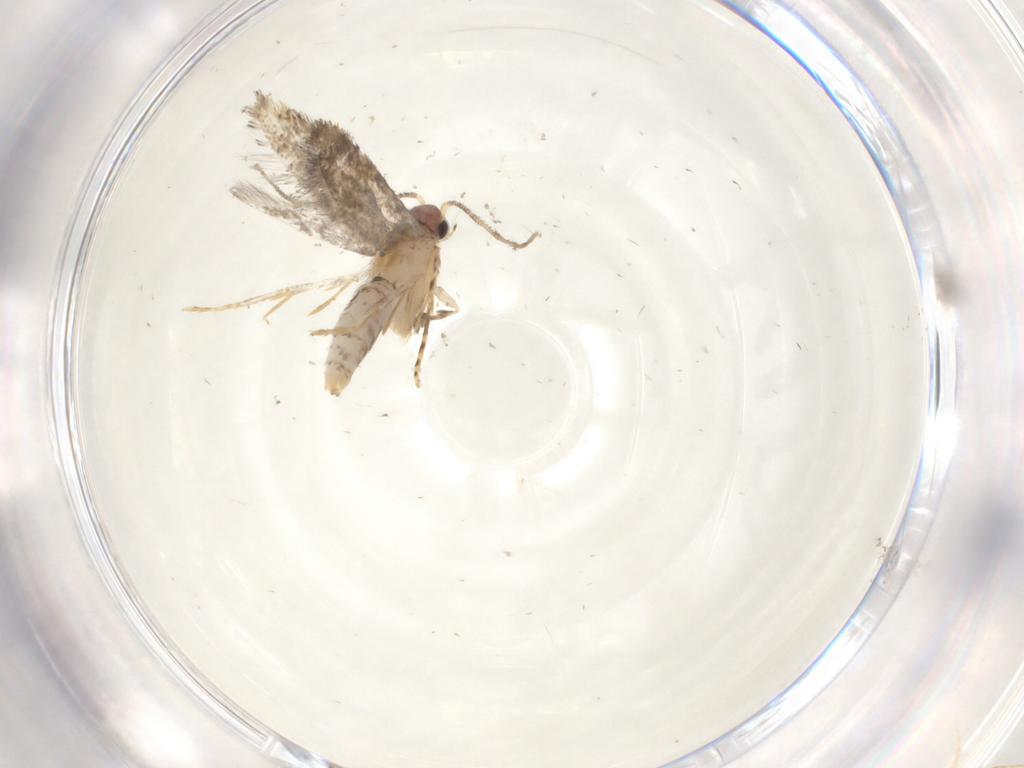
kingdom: Animalia
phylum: Arthropoda
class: Insecta
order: Lepidoptera
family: Tineidae
